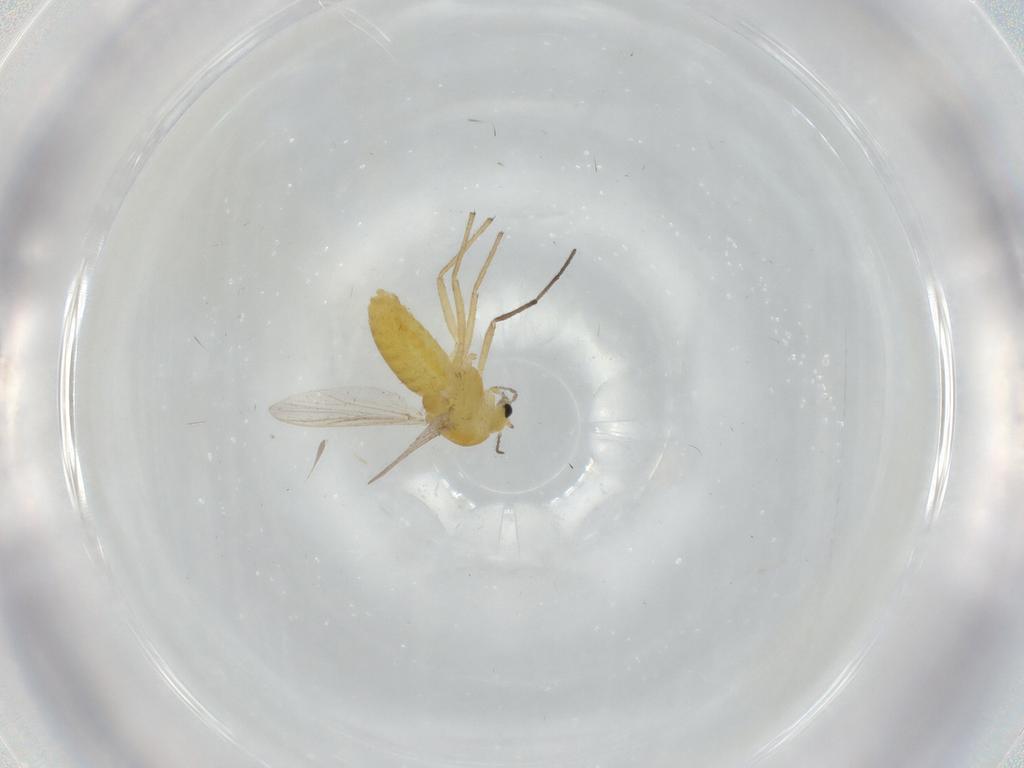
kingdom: Animalia
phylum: Arthropoda
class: Insecta
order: Diptera
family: Chironomidae
